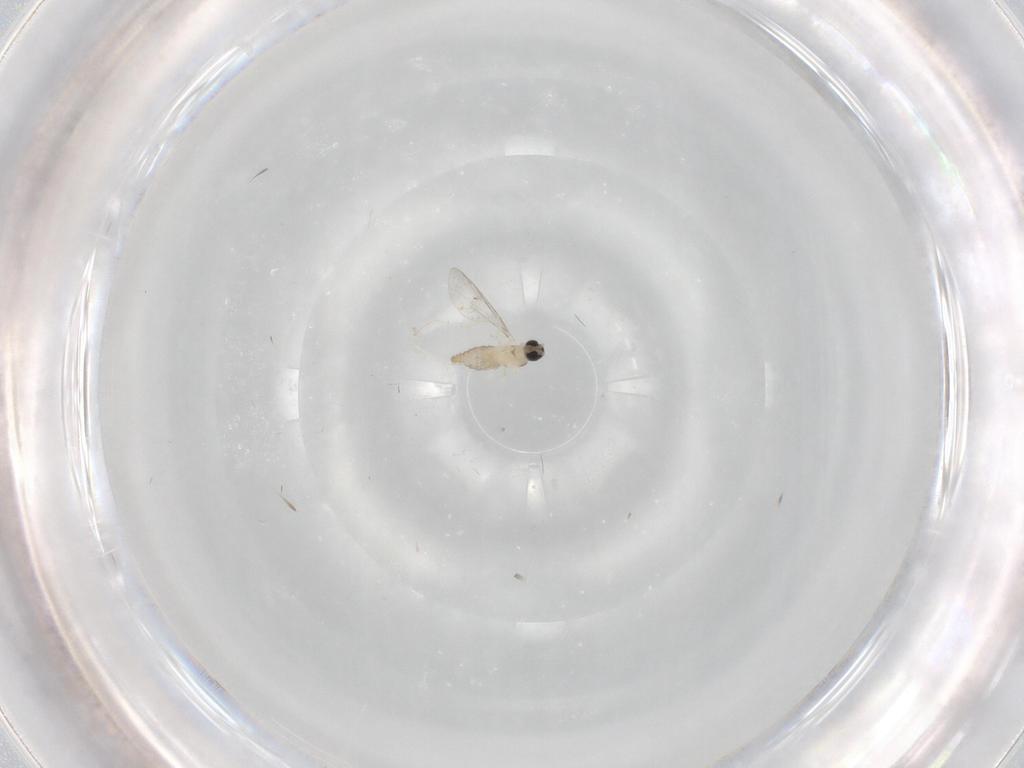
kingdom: Animalia
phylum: Arthropoda
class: Insecta
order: Diptera
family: Cecidomyiidae
